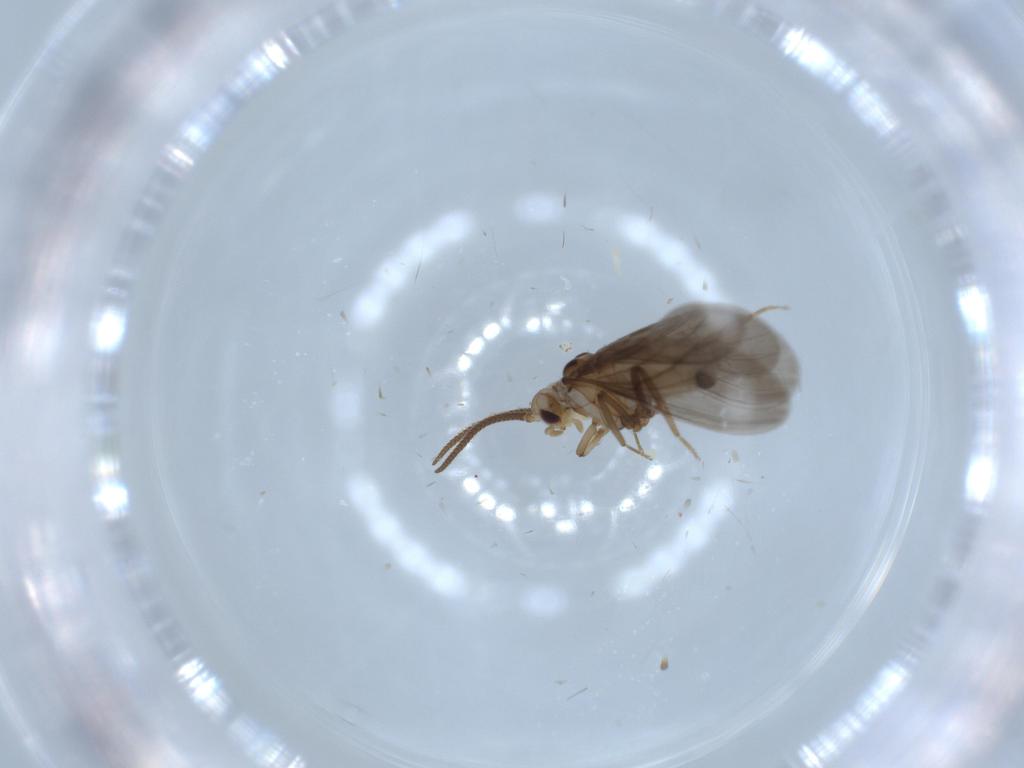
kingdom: Animalia
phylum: Arthropoda
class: Insecta
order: Neuroptera
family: Coniopterygidae
